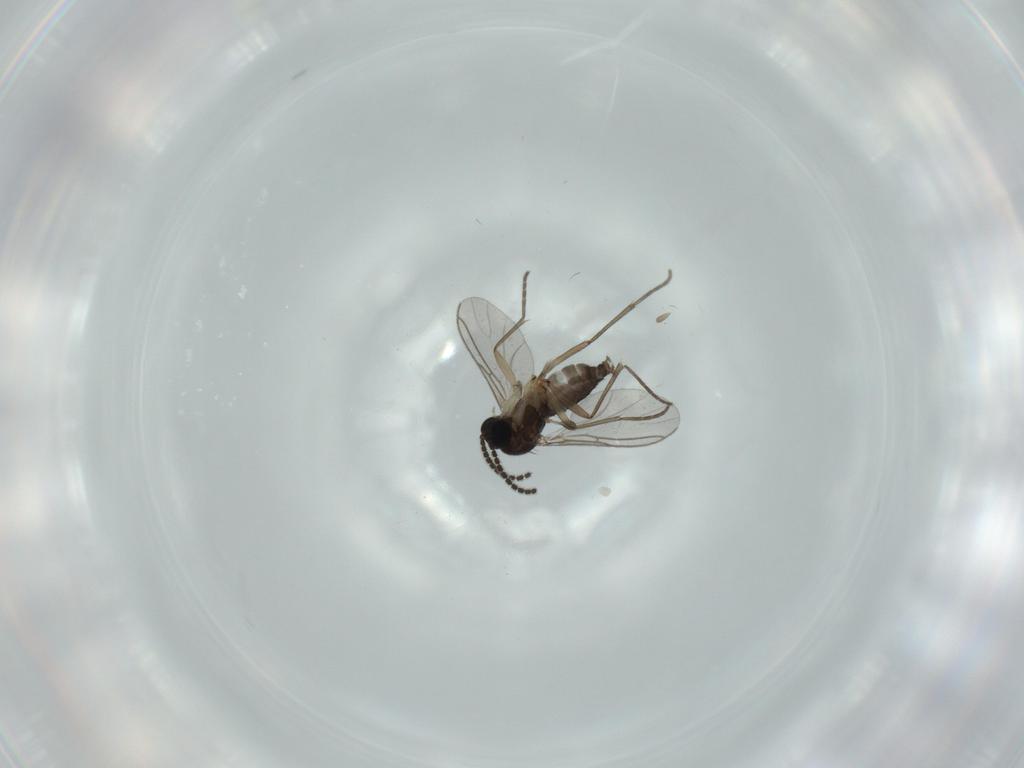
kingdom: Animalia
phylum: Arthropoda
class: Insecta
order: Diptera
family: Sciaridae
